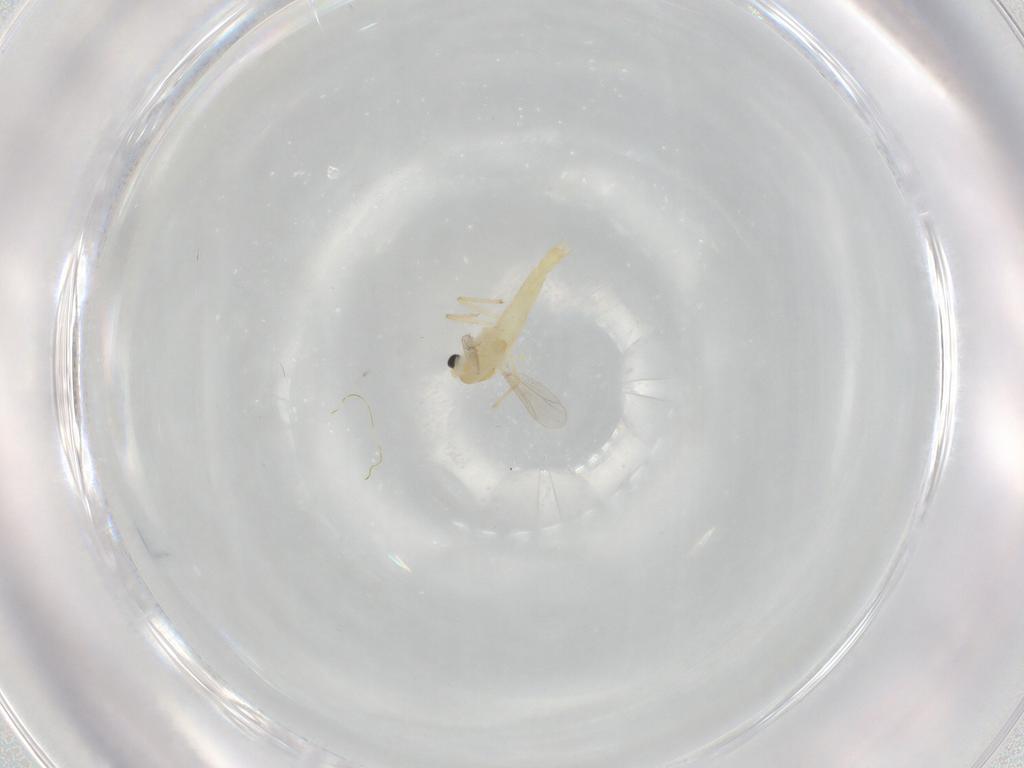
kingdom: Animalia
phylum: Arthropoda
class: Insecta
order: Diptera
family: Chironomidae
